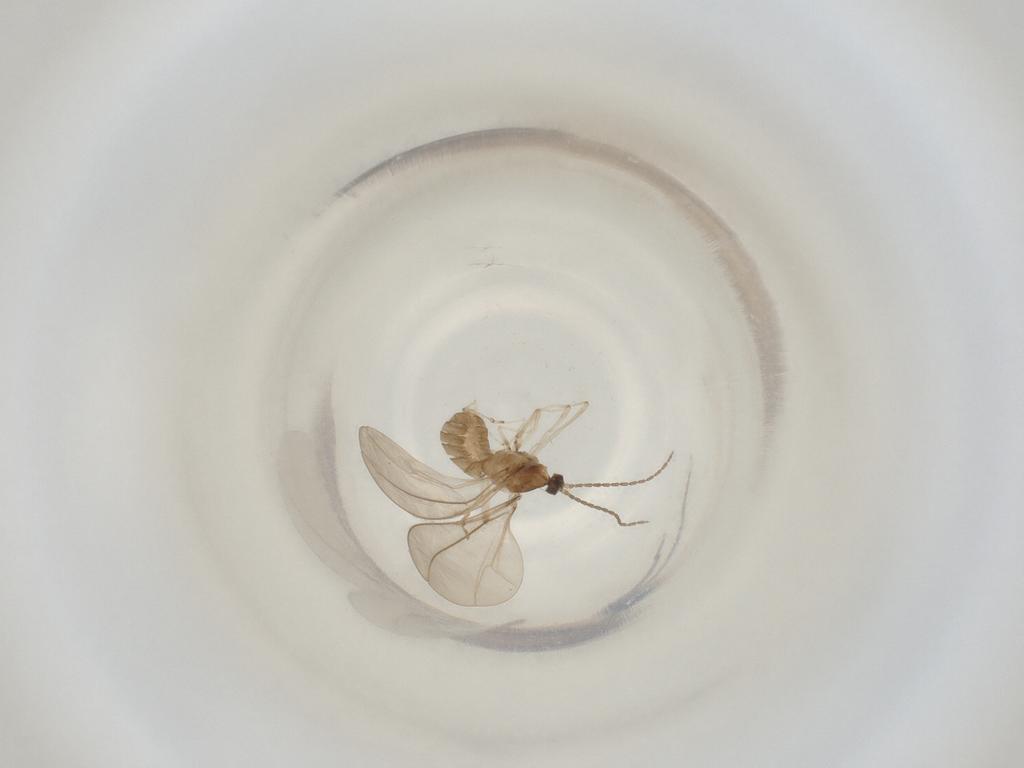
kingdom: Animalia
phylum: Arthropoda
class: Insecta
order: Diptera
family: Cecidomyiidae
